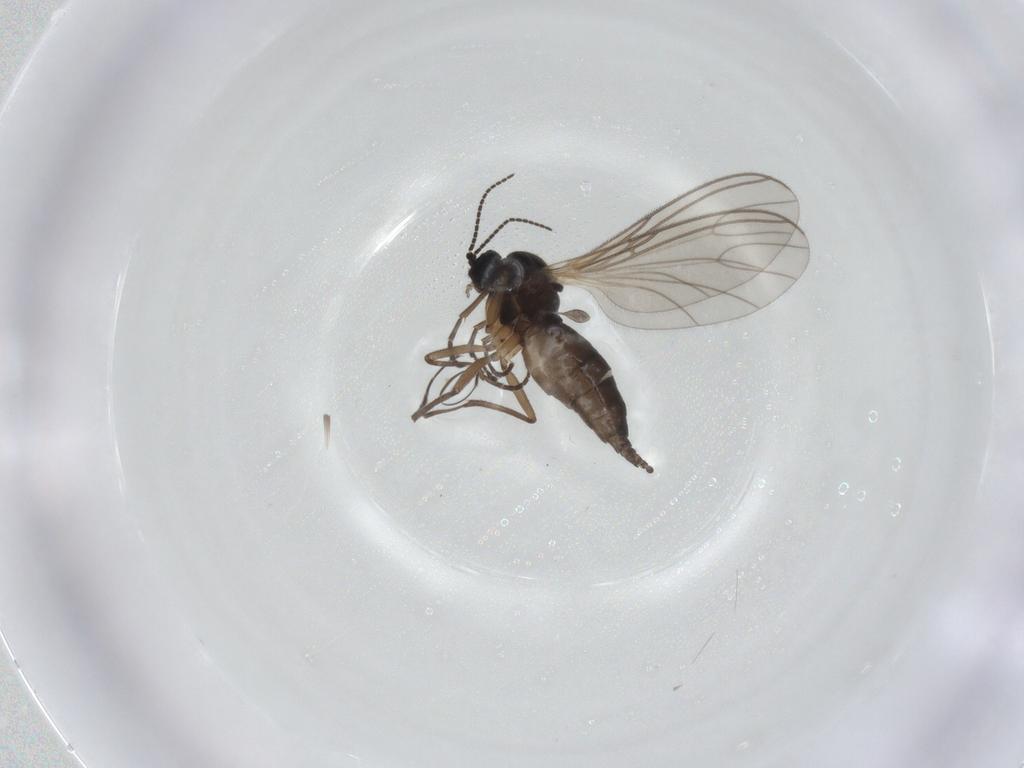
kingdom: Animalia
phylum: Arthropoda
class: Insecta
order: Diptera
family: Sciaridae
